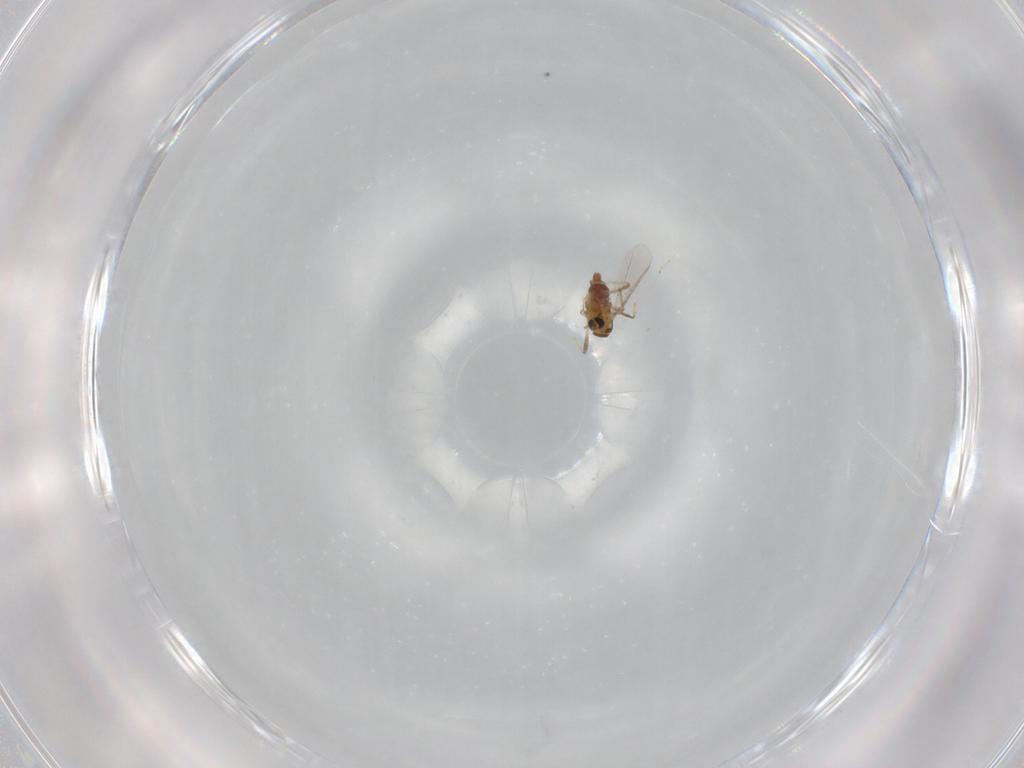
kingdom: Animalia
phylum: Arthropoda
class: Insecta
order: Diptera
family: Chironomidae
